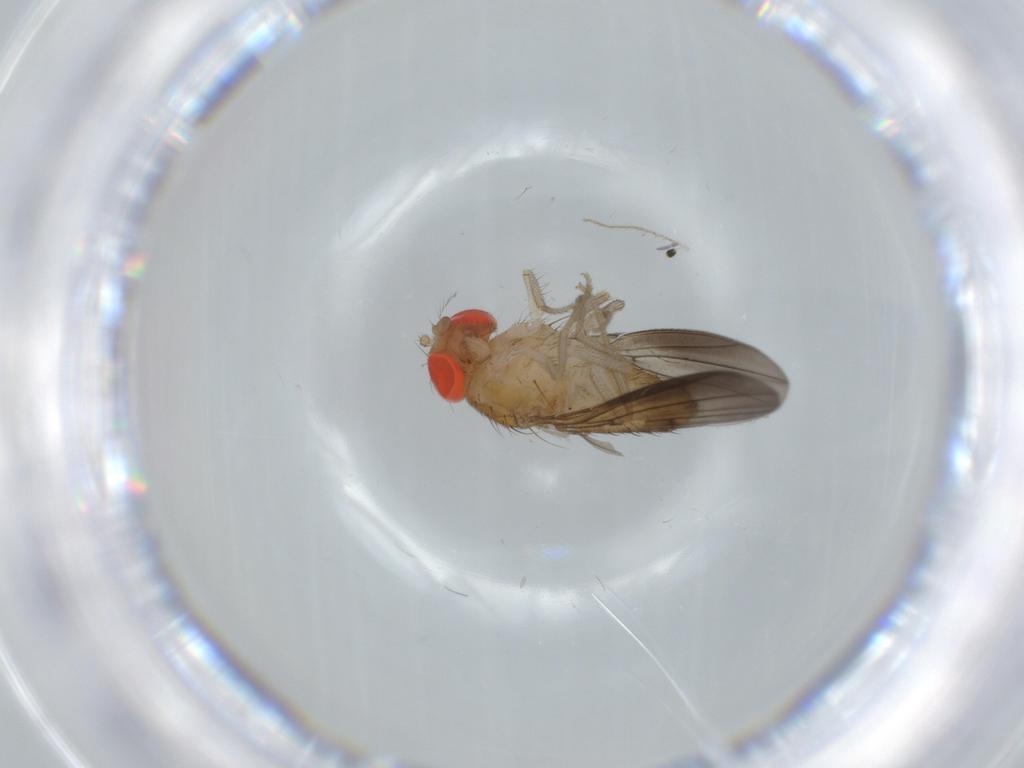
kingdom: Animalia
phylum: Arthropoda
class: Insecta
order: Diptera
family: Drosophilidae
